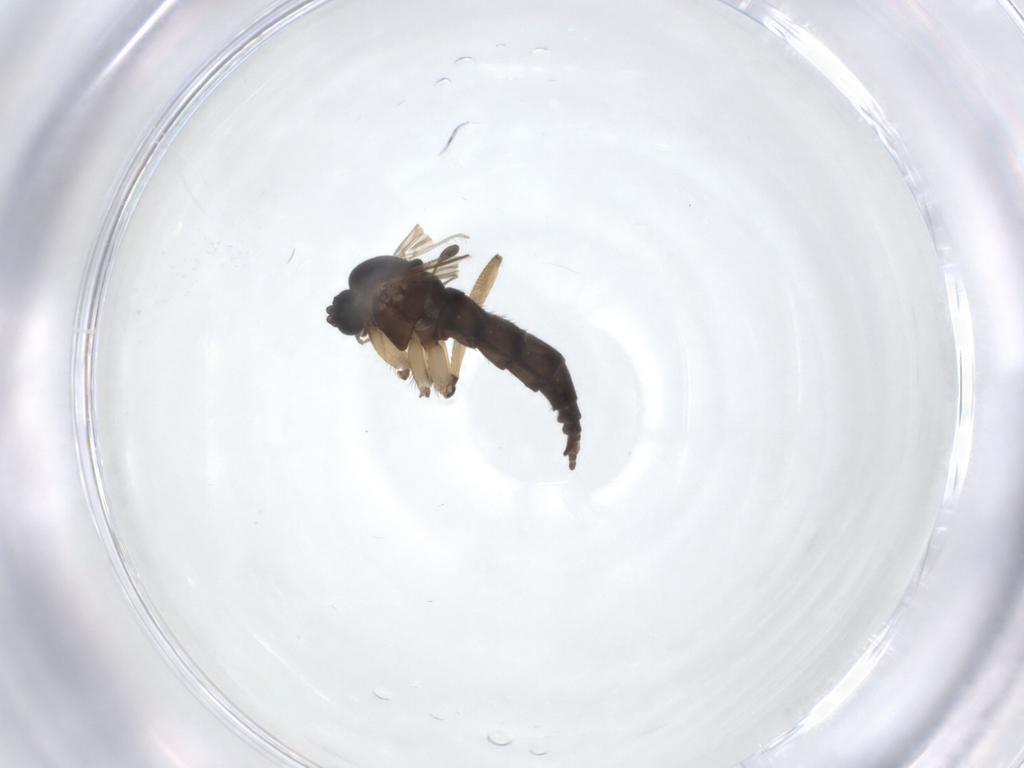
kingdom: Animalia
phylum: Arthropoda
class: Insecta
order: Diptera
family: Sciaridae
